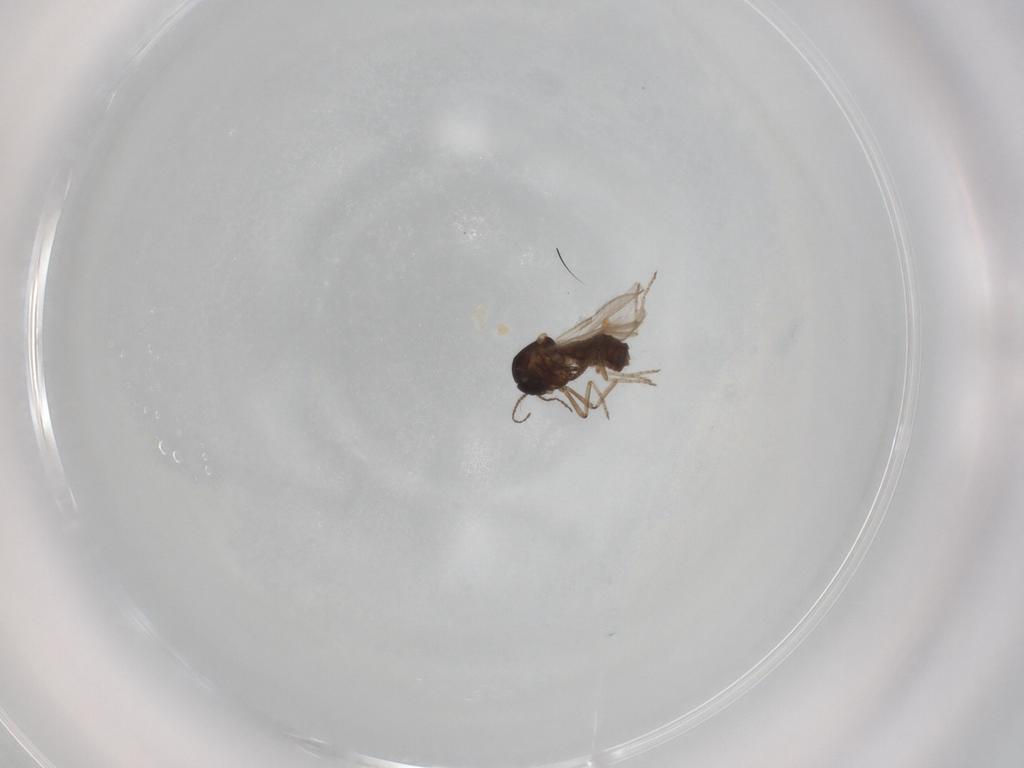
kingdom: Animalia
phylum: Arthropoda
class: Insecta
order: Diptera
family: Ceratopogonidae
